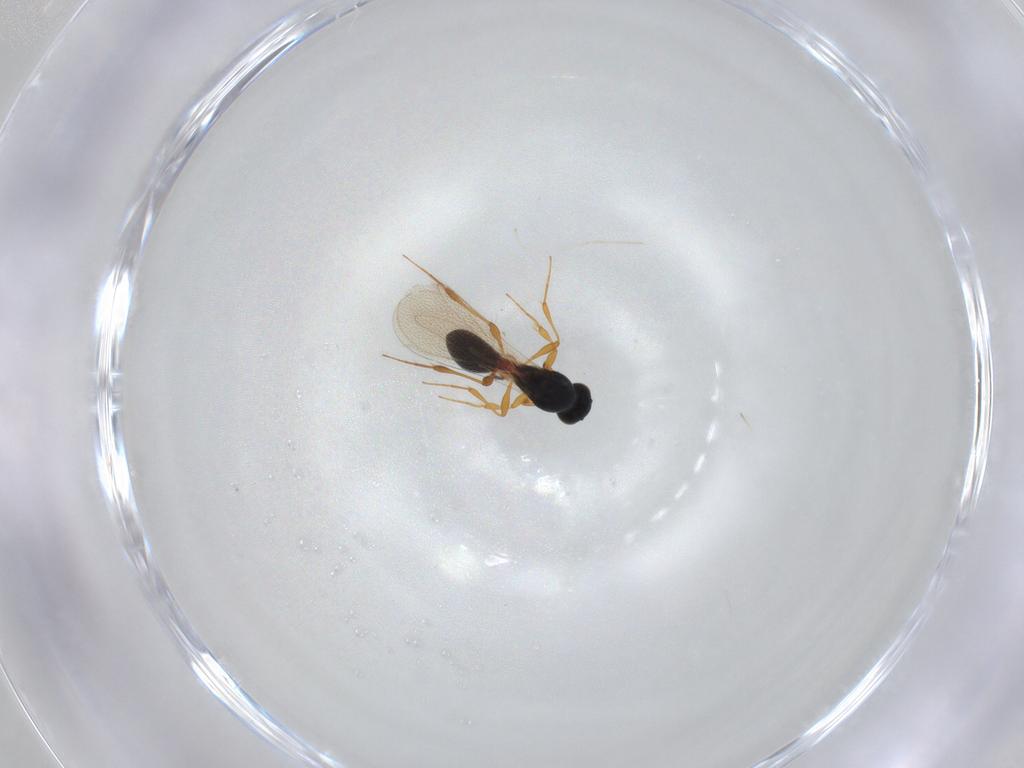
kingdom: Animalia
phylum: Arthropoda
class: Insecta
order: Hymenoptera
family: Platygastridae
